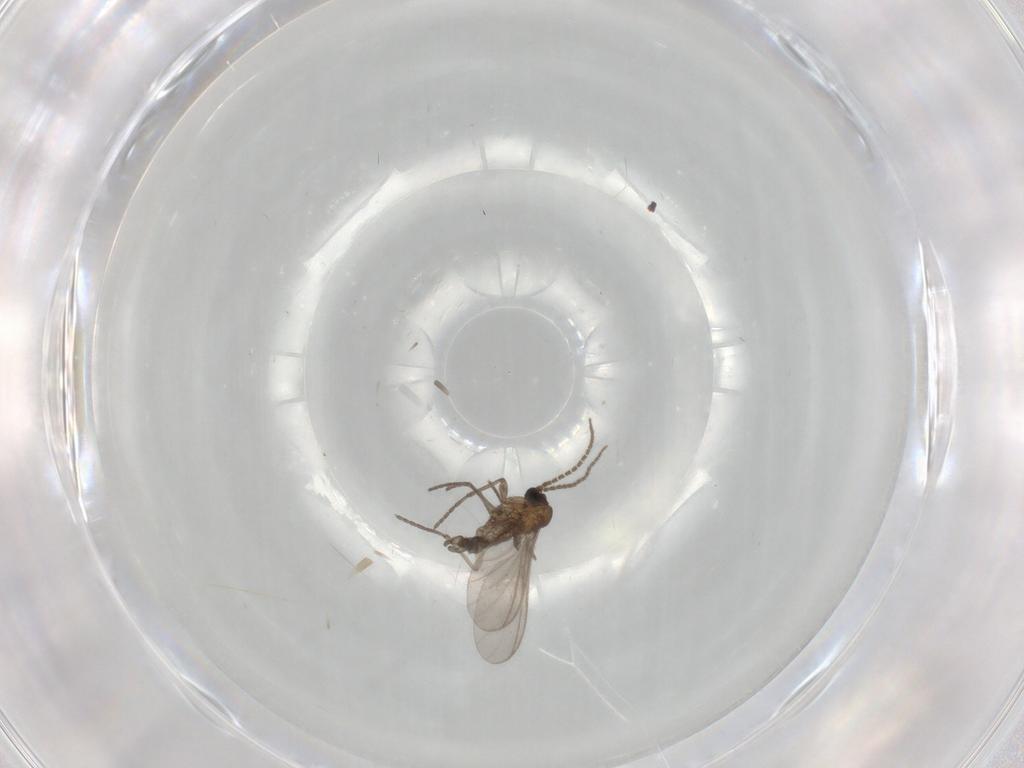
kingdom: Animalia
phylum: Arthropoda
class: Insecta
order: Diptera
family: Sciaridae
